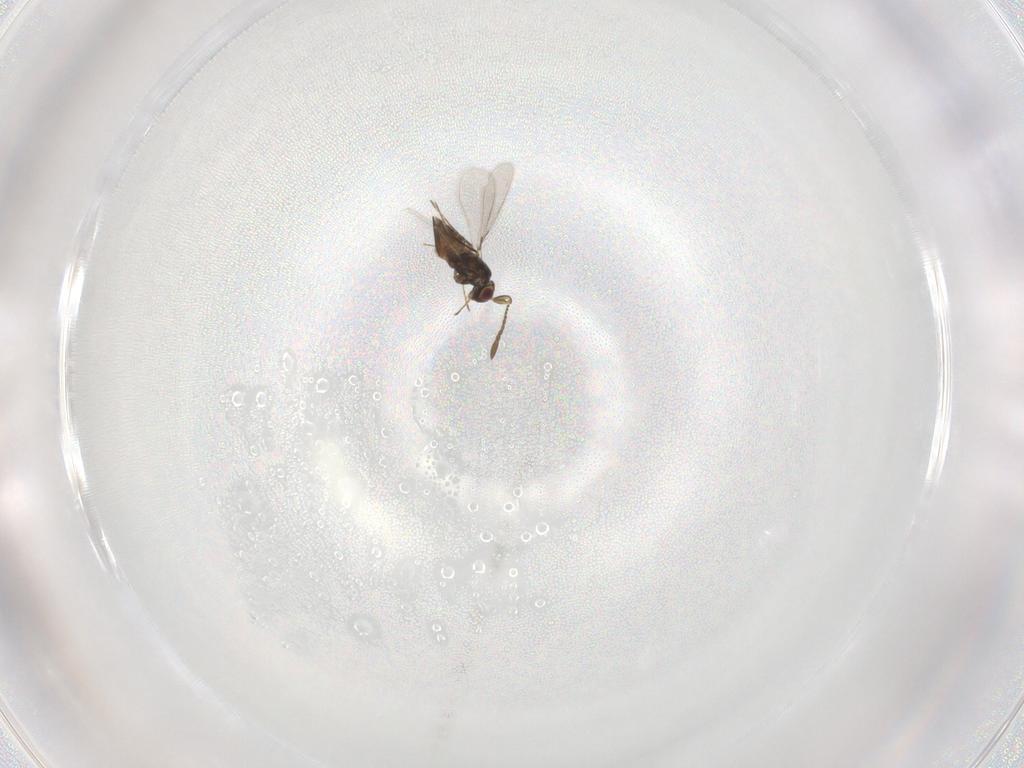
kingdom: Animalia
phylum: Arthropoda
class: Insecta
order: Hymenoptera
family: Mymaridae
